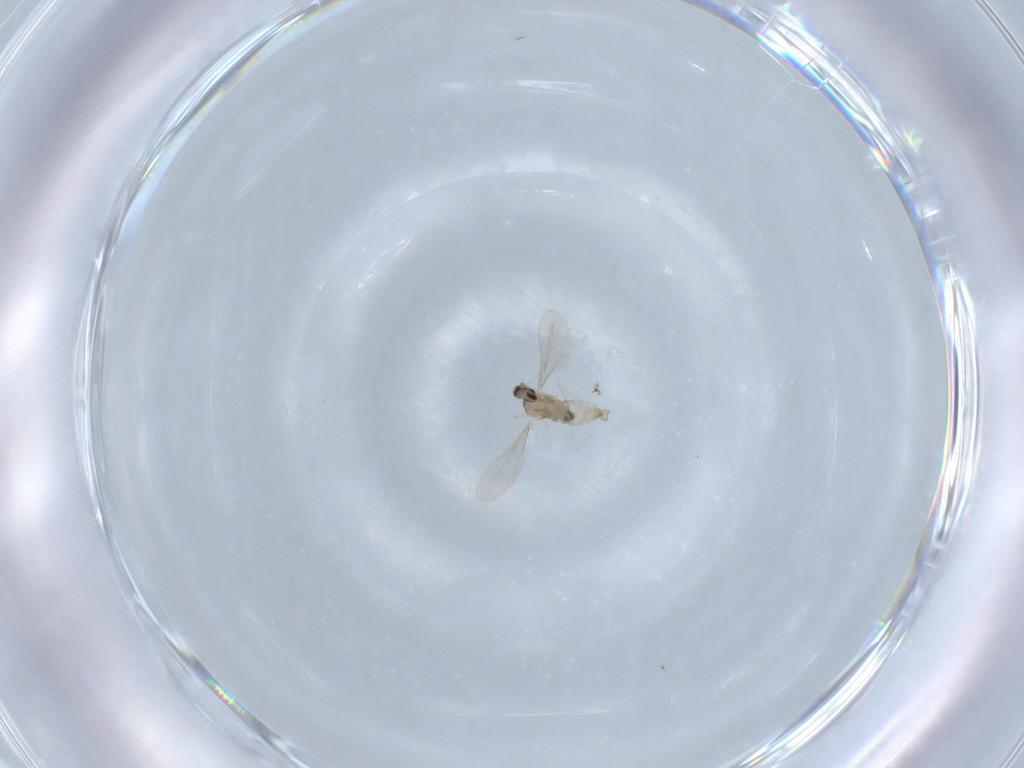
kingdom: Animalia
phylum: Arthropoda
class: Insecta
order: Diptera
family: Cecidomyiidae
